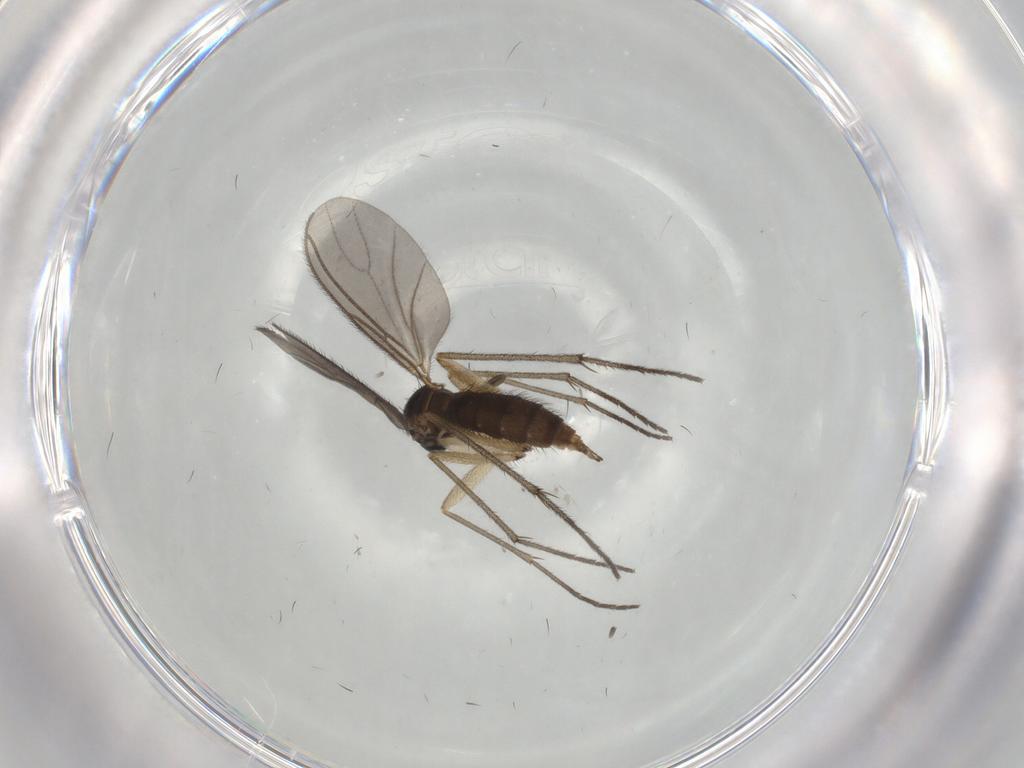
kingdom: Animalia
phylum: Arthropoda
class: Insecta
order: Diptera
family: Sciaridae
